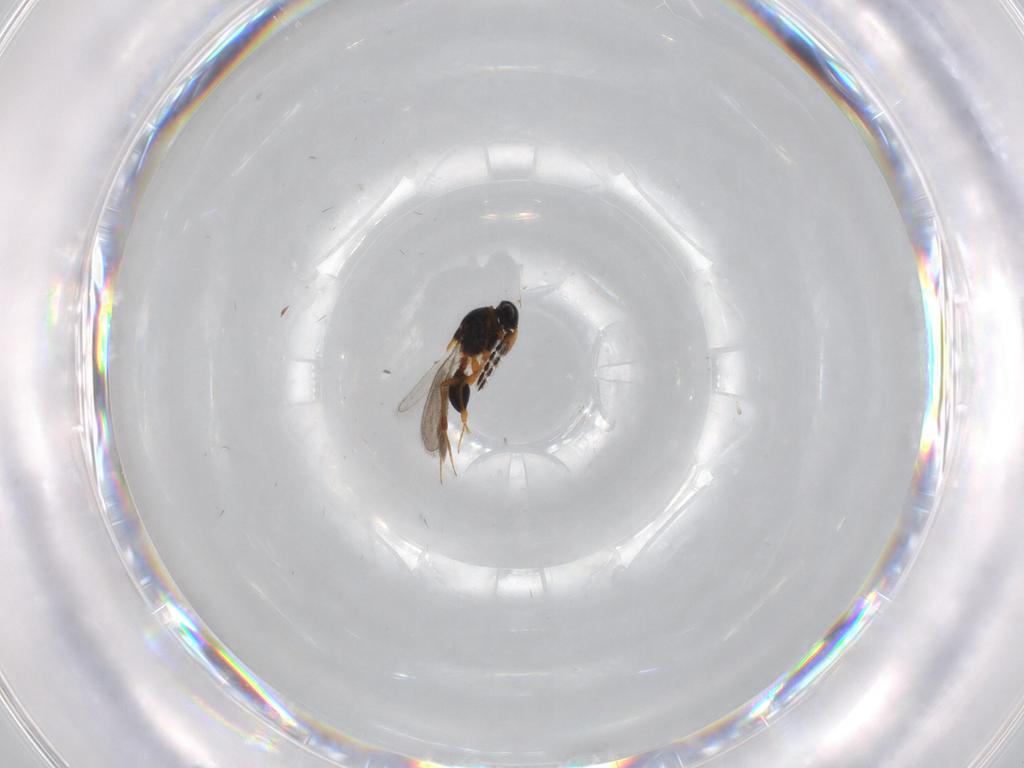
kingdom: Animalia
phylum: Arthropoda
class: Insecta
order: Hymenoptera
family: Platygastridae
